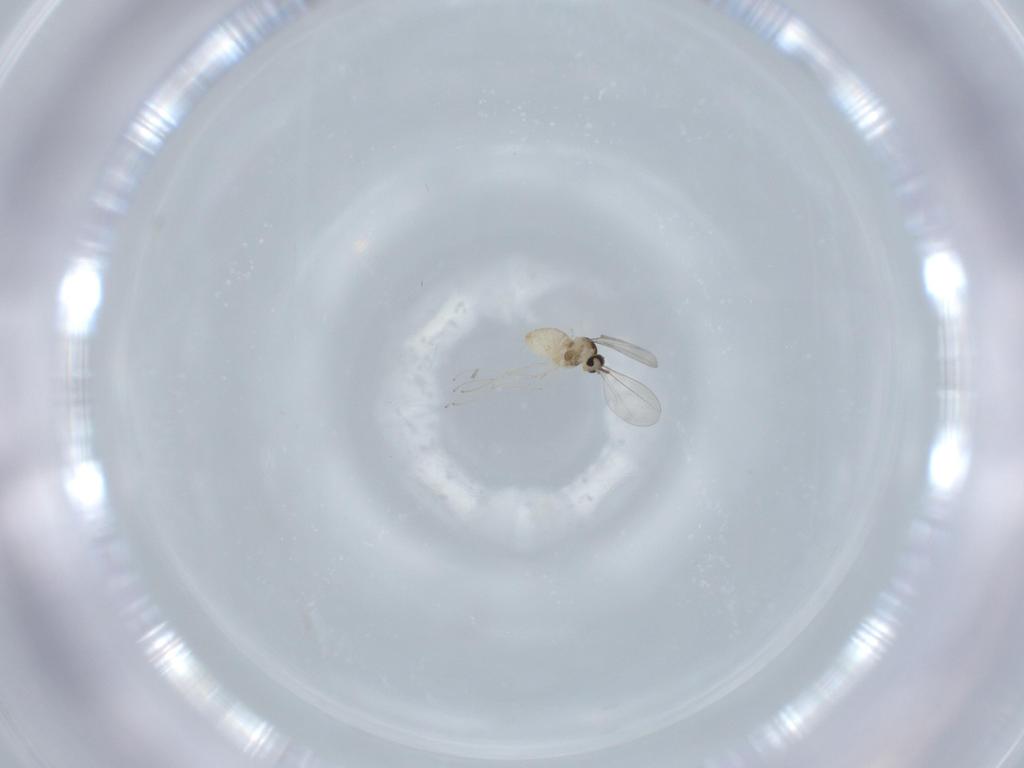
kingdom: Animalia
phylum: Arthropoda
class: Insecta
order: Diptera
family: Cecidomyiidae
